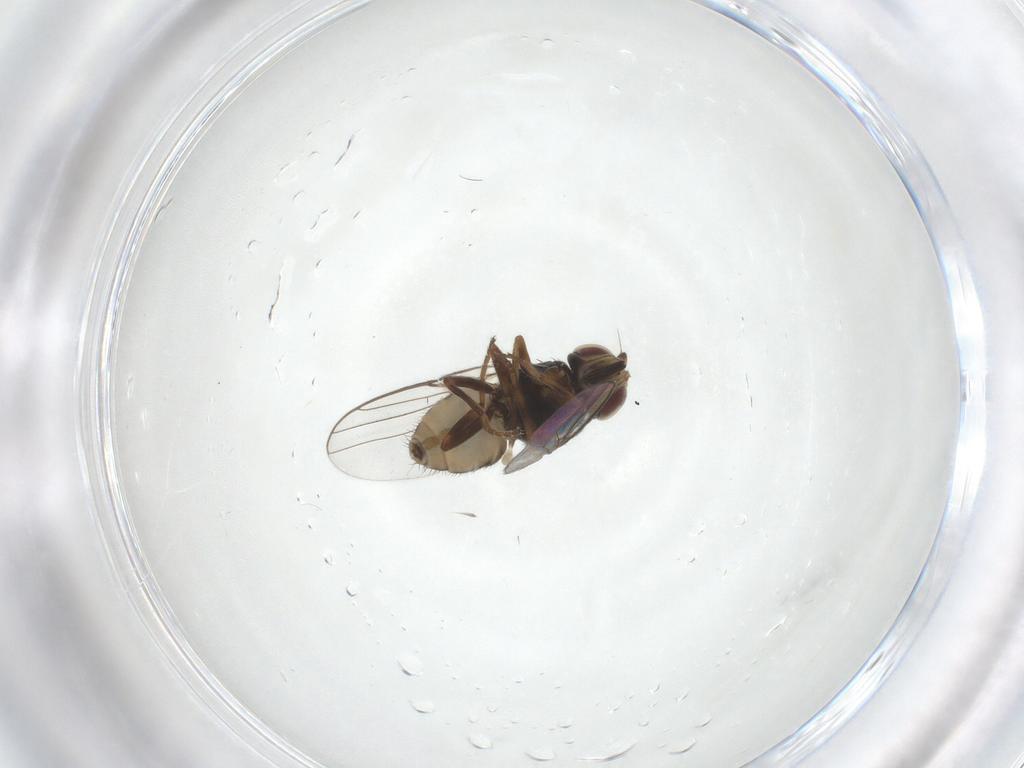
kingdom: Animalia
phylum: Arthropoda
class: Insecta
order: Diptera
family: Chloropidae
